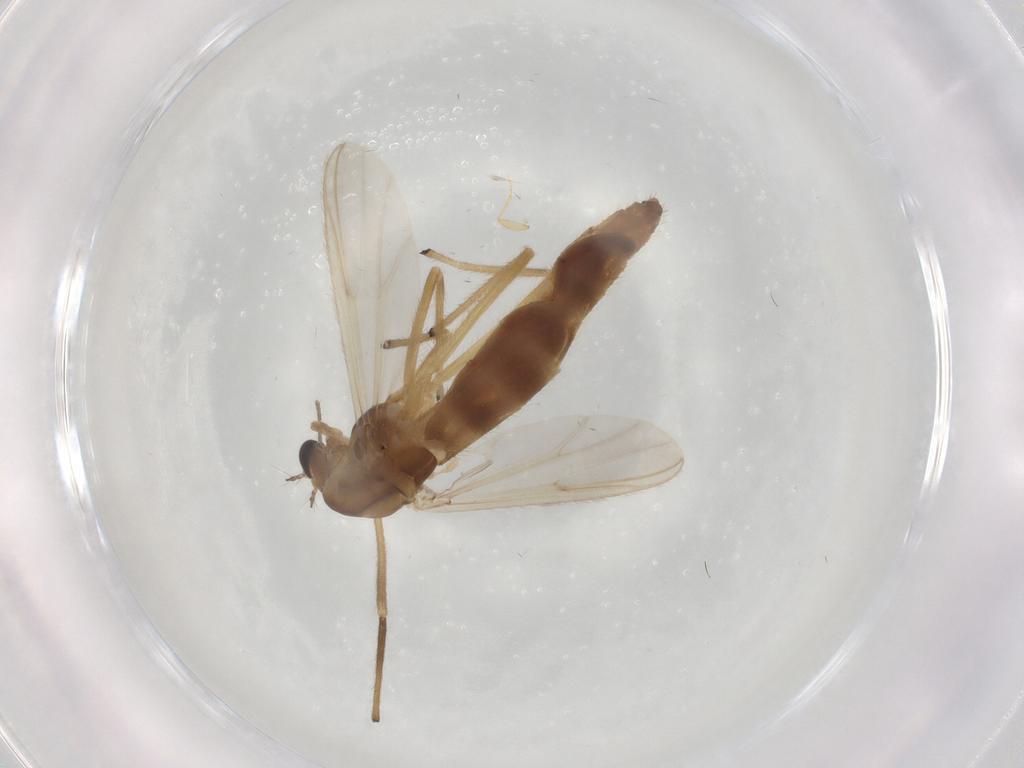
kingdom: Animalia
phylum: Arthropoda
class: Insecta
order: Diptera
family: Chironomidae
